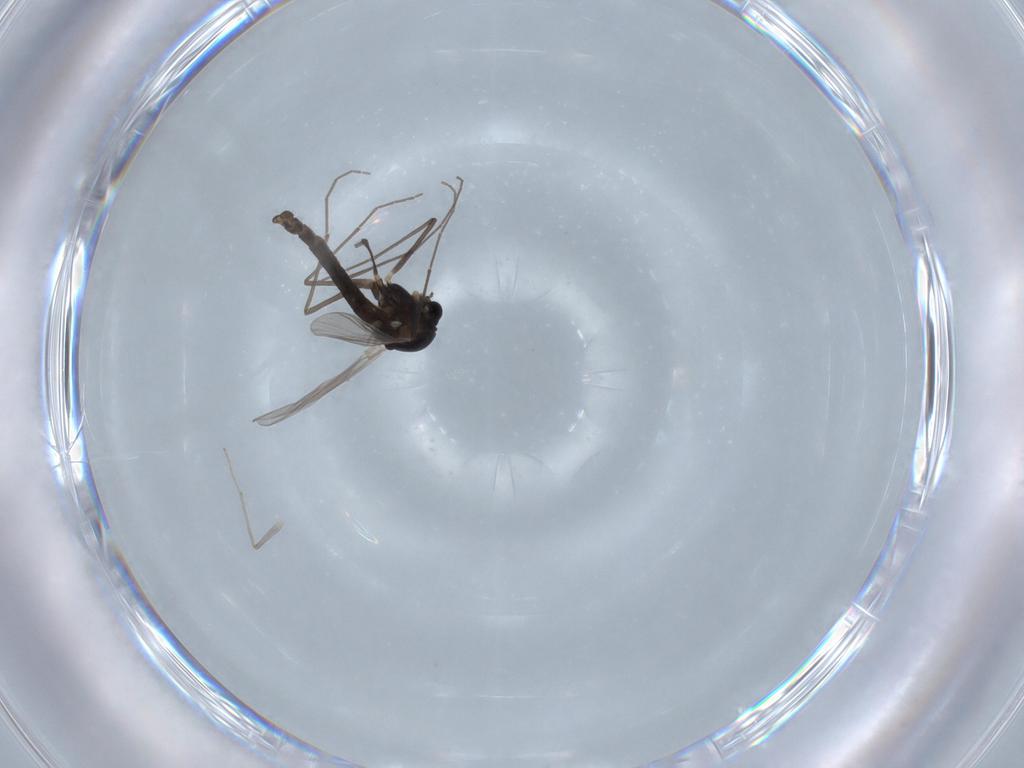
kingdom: Animalia
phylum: Arthropoda
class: Insecta
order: Diptera
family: Chironomidae
